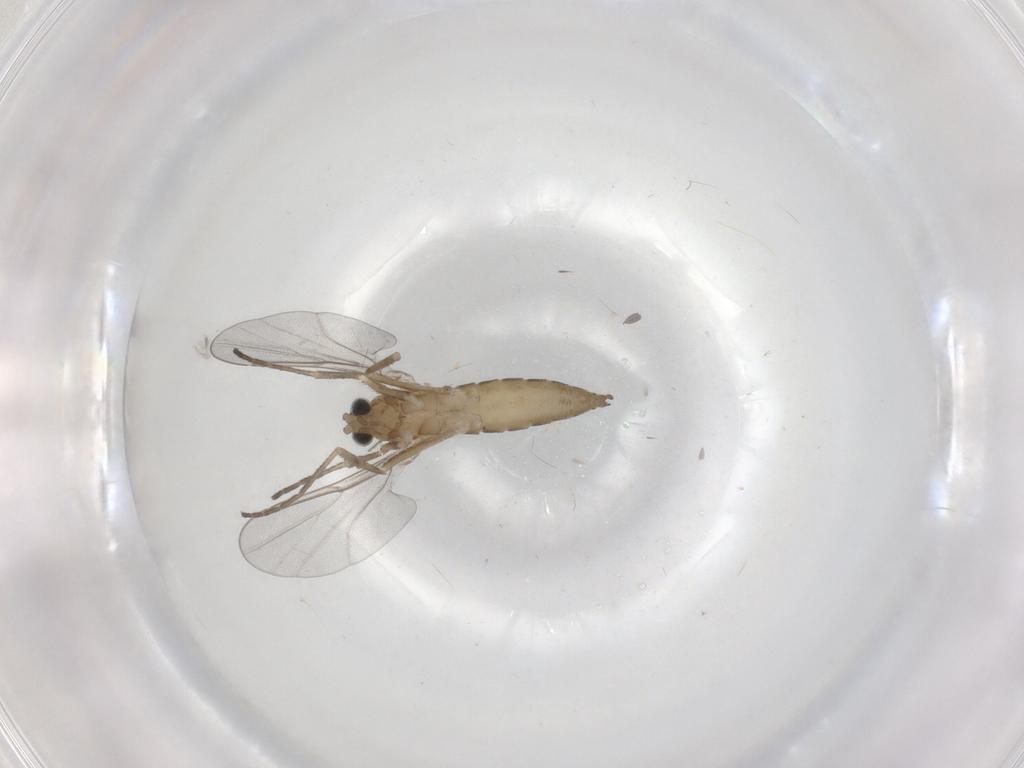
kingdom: Animalia
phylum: Arthropoda
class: Insecta
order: Diptera
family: Cecidomyiidae
